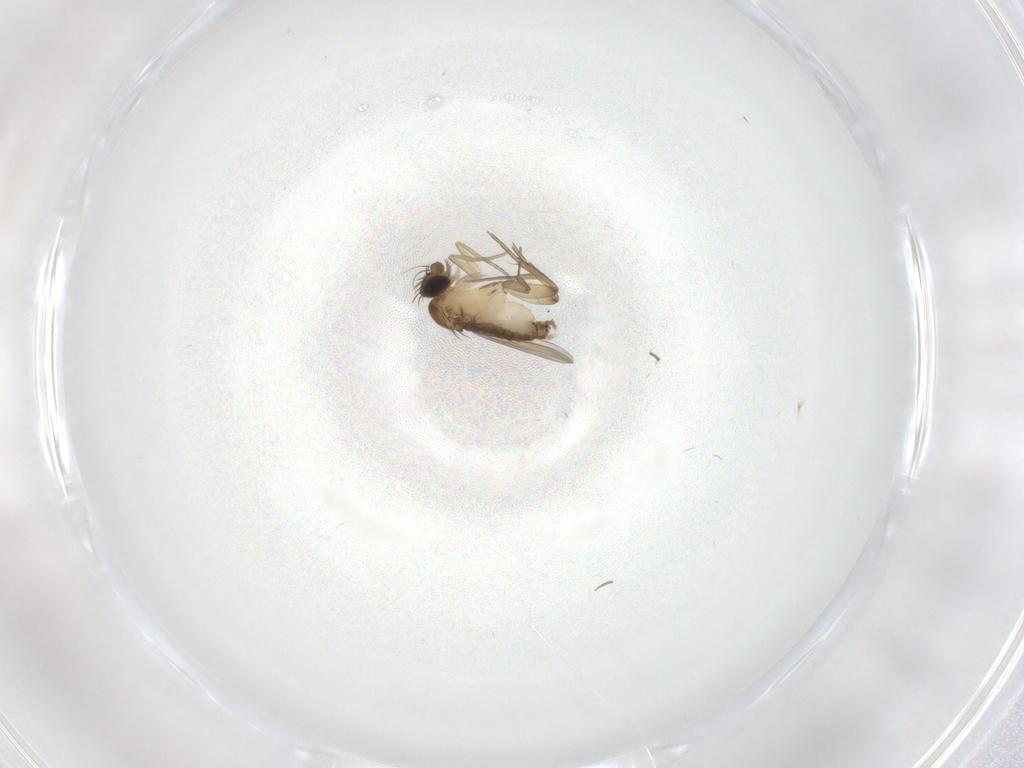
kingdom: Animalia
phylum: Arthropoda
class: Insecta
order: Diptera
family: Phoridae
